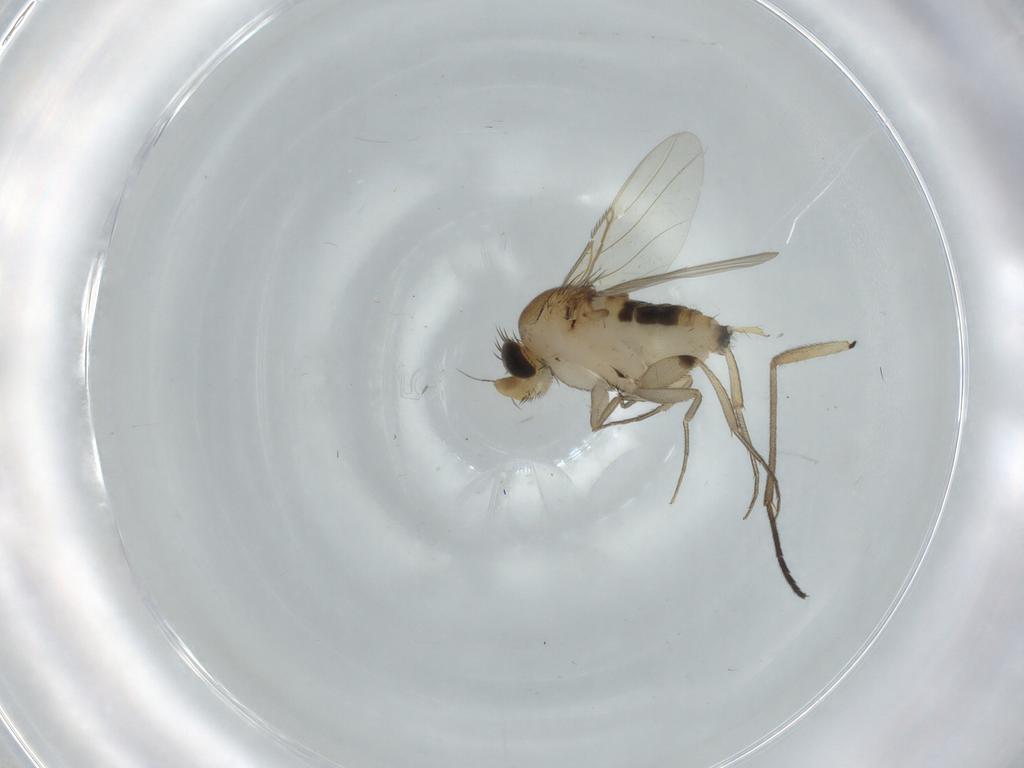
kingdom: Animalia
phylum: Arthropoda
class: Insecta
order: Diptera
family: Phoridae
